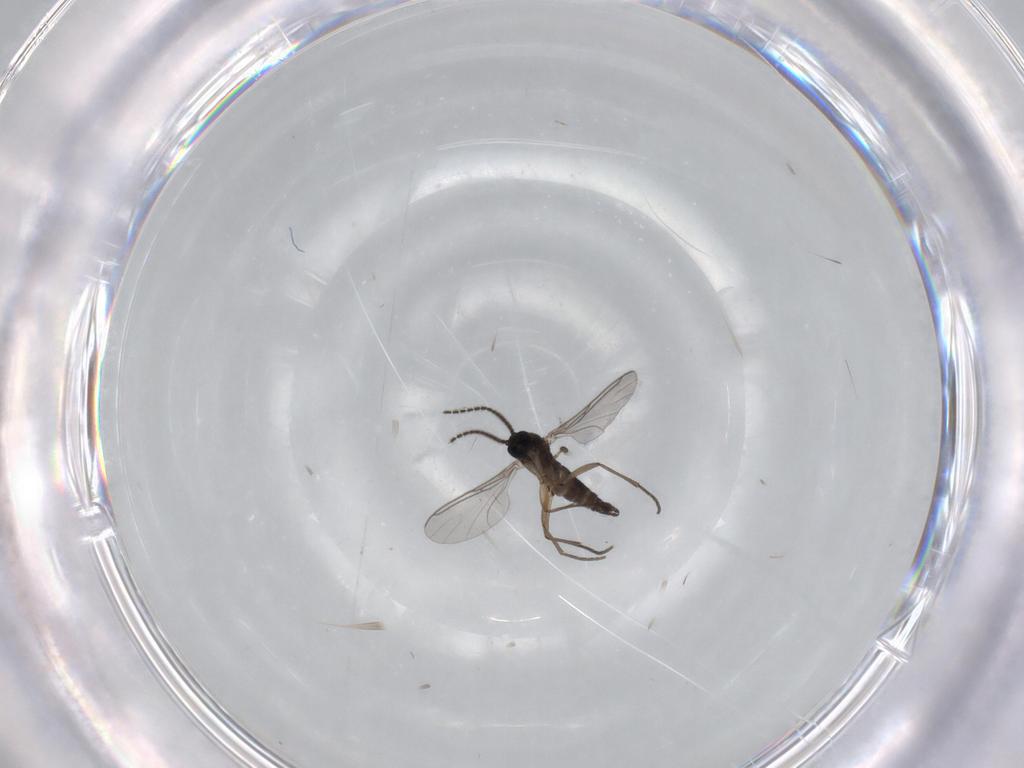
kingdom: Animalia
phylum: Arthropoda
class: Insecta
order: Diptera
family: Sciaridae
